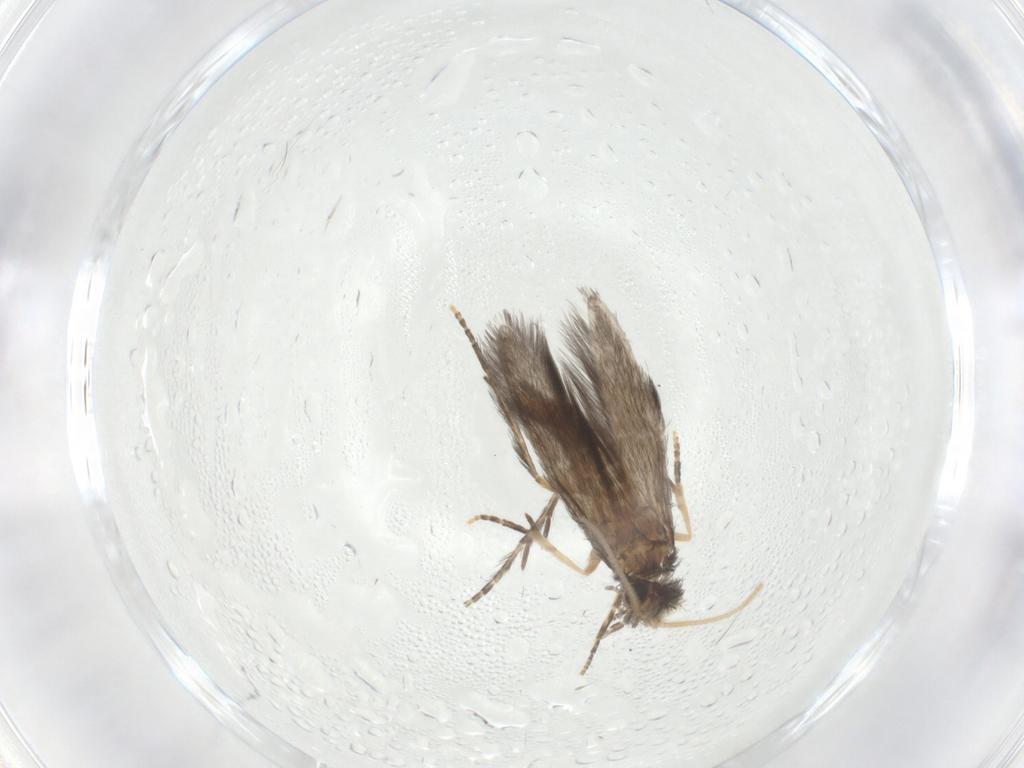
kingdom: Animalia
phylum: Arthropoda
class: Insecta
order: Trichoptera
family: Hydroptilidae
